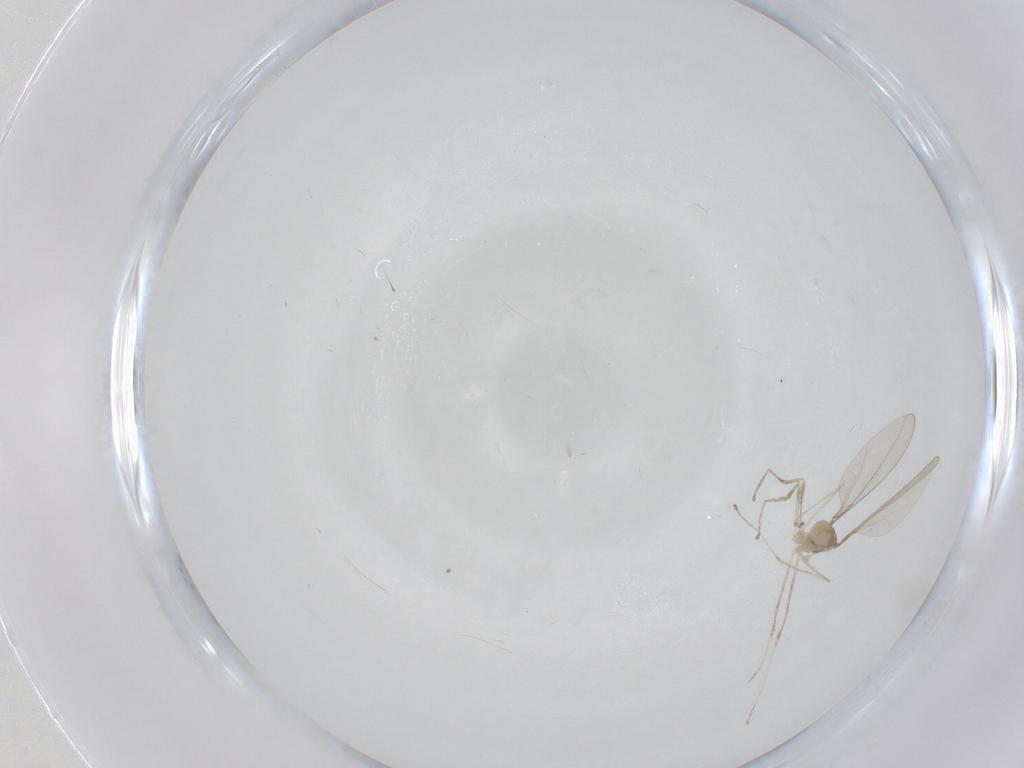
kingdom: Animalia
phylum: Arthropoda
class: Insecta
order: Diptera
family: Cecidomyiidae
